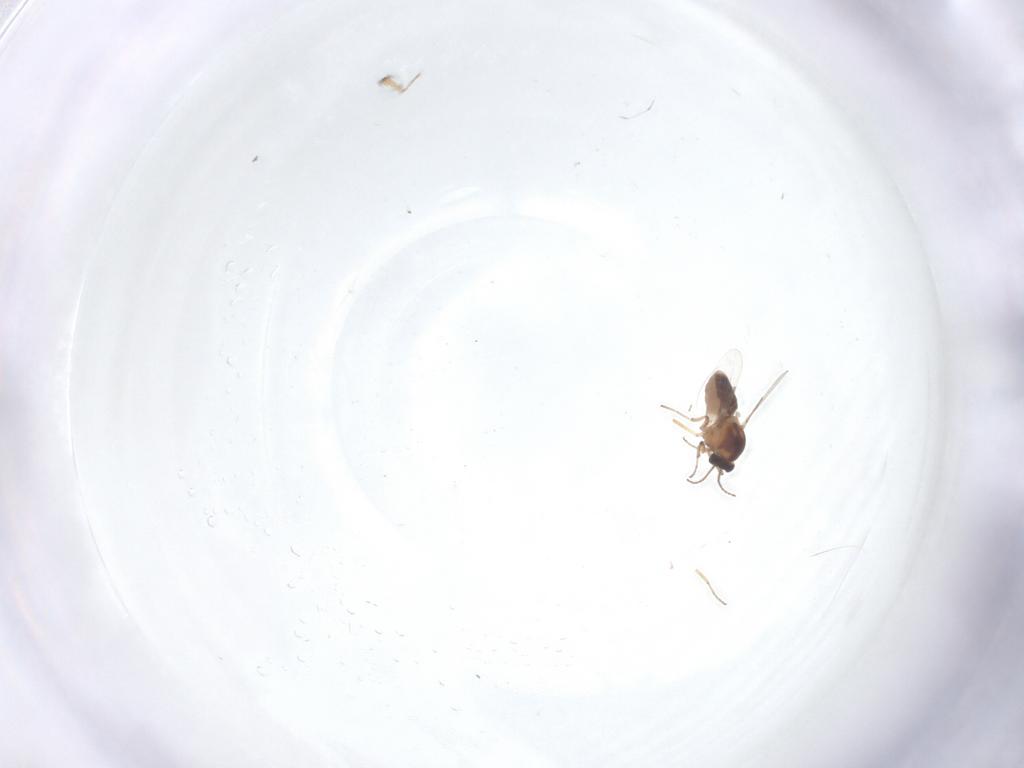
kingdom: Animalia
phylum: Arthropoda
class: Insecta
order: Diptera
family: Ceratopogonidae
